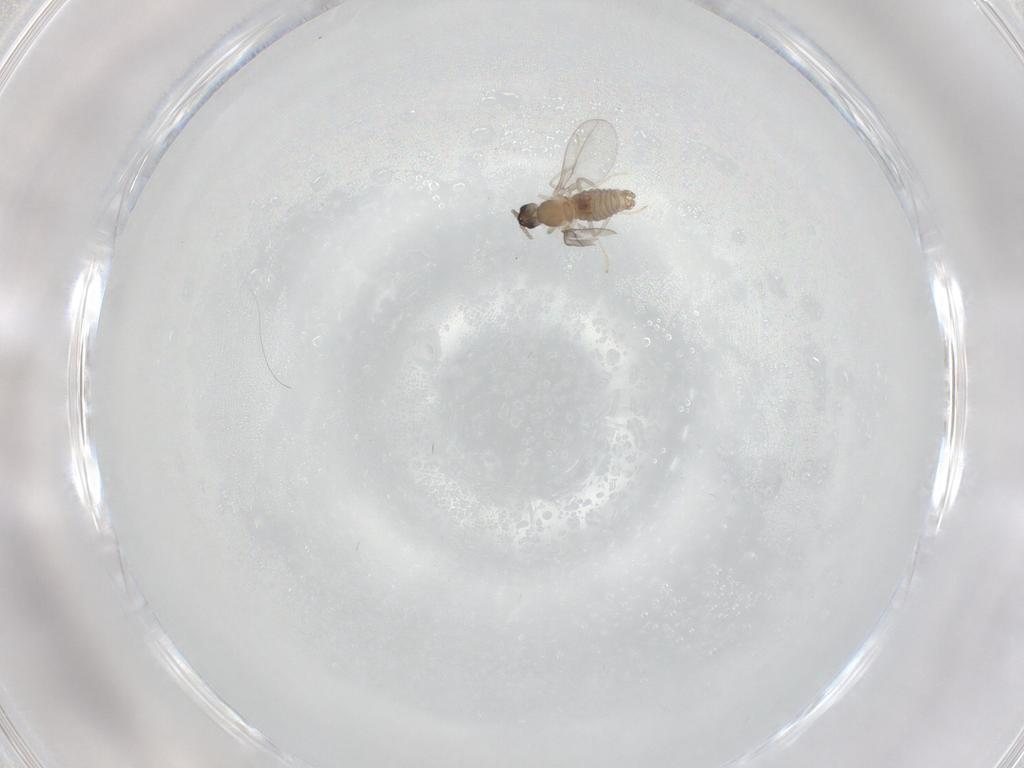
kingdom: Animalia
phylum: Arthropoda
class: Insecta
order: Diptera
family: Cecidomyiidae
